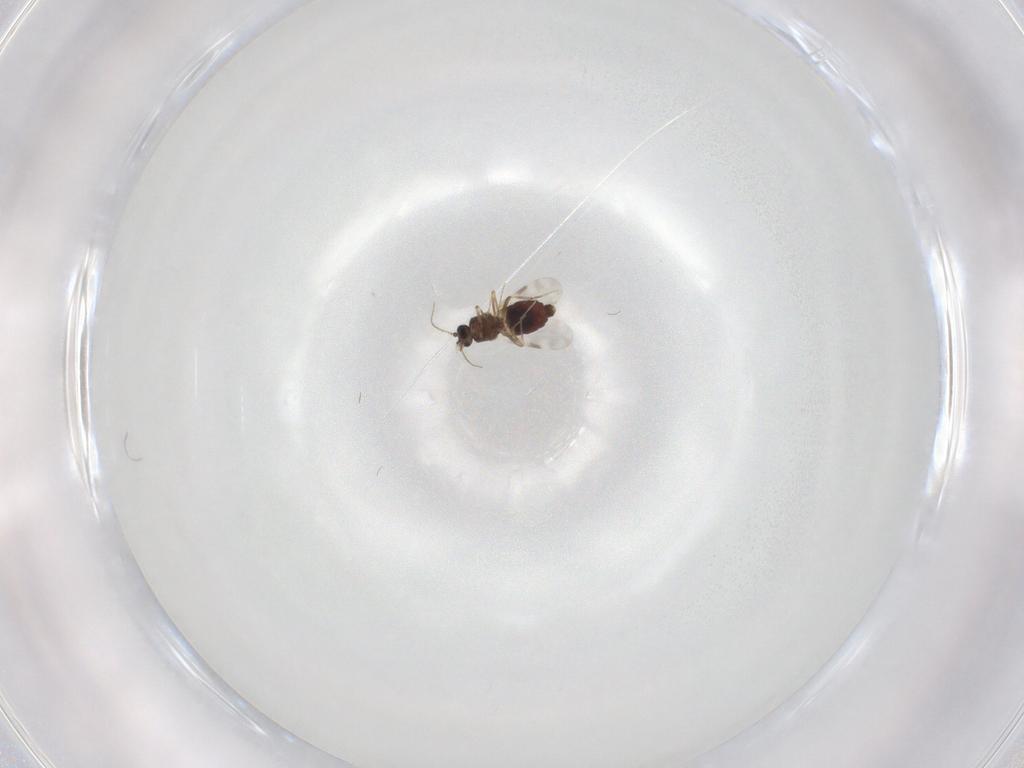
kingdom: Animalia
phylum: Arthropoda
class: Insecta
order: Diptera
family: Ceratopogonidae
